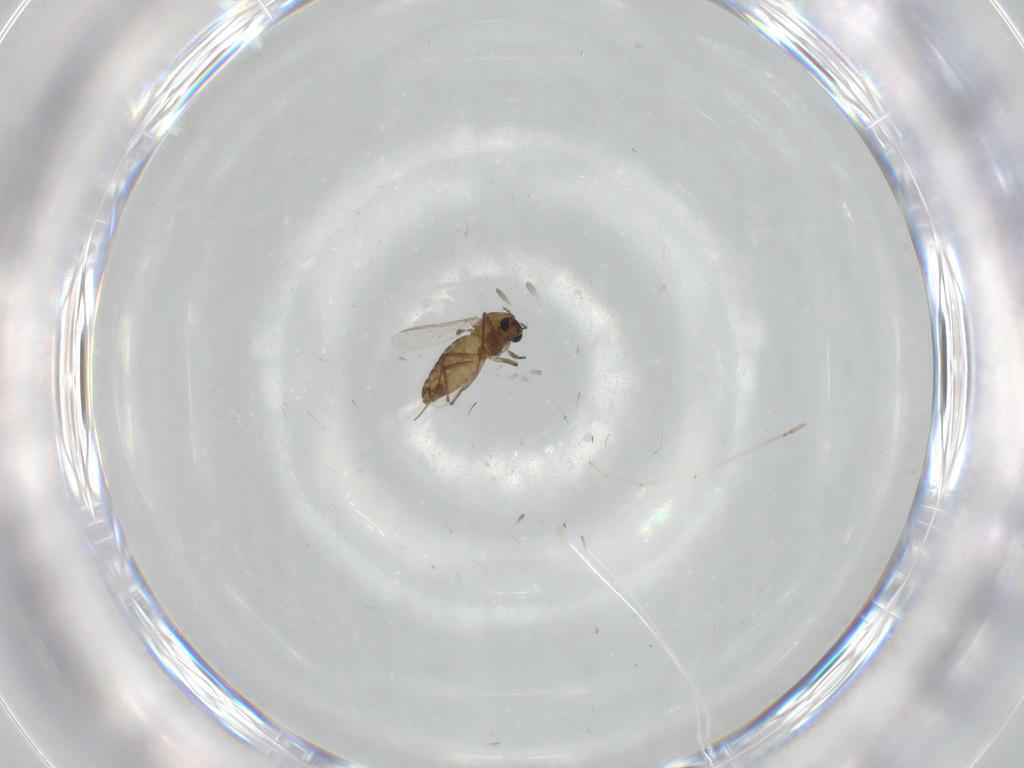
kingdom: Animalia
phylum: Arthropoda
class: Insecta
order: Diptera
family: Chironomidae
